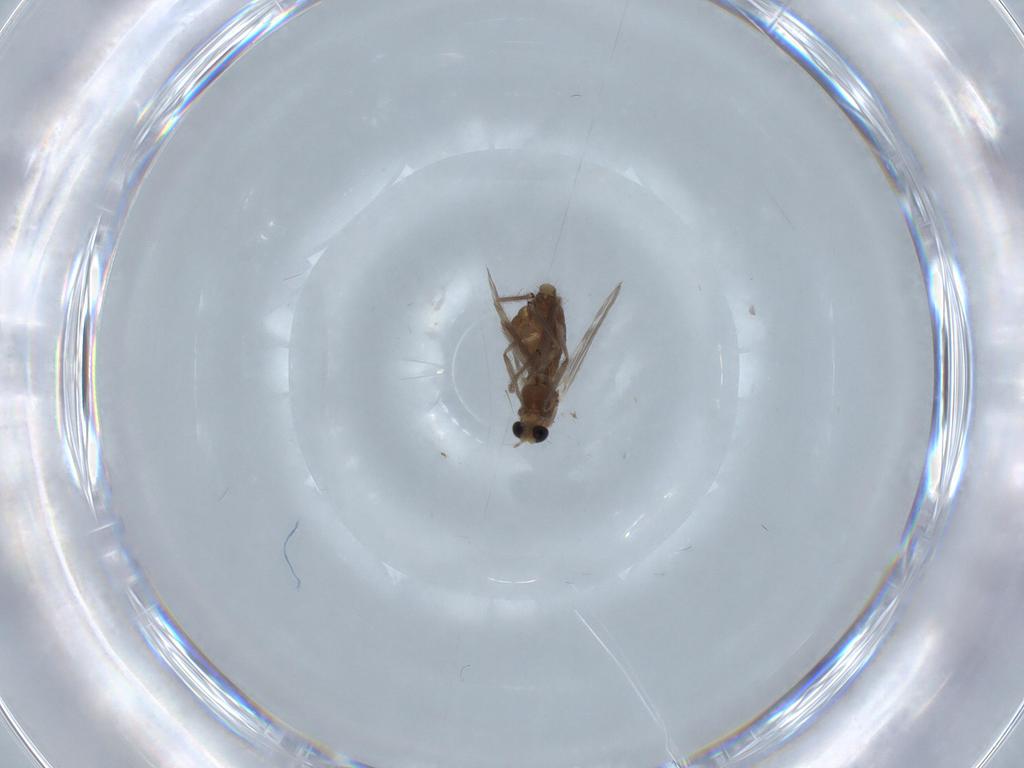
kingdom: Animalia
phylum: Arthropoda
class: Insecta
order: Diptera
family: Chironomidae
